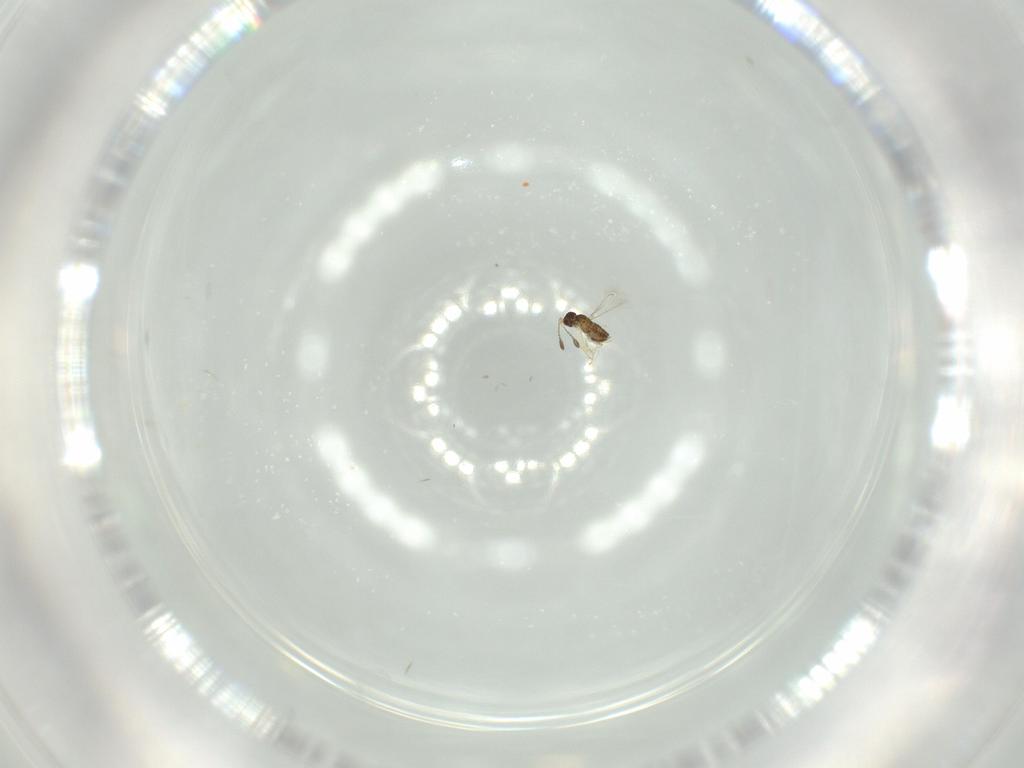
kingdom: Animalia
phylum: Arthropoda
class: Insecta
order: Hymenoptera
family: Mymaridae
